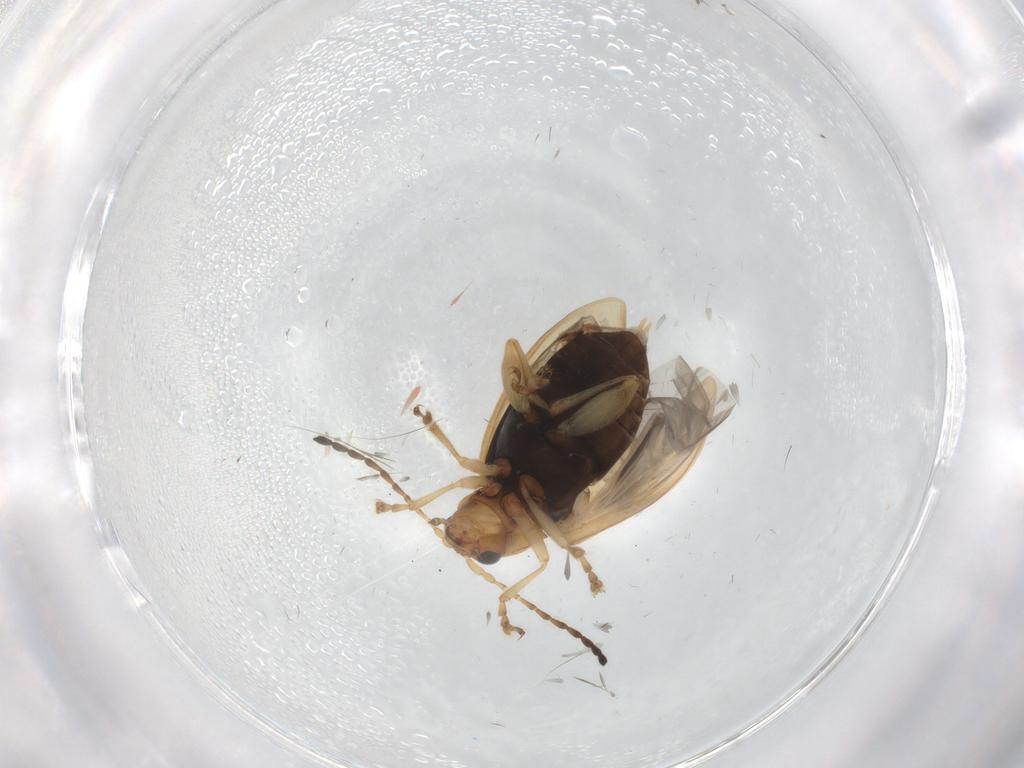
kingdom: Animalia
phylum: Arthropoda
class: Insecta
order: Coleoptera
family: Chrysomelidae
